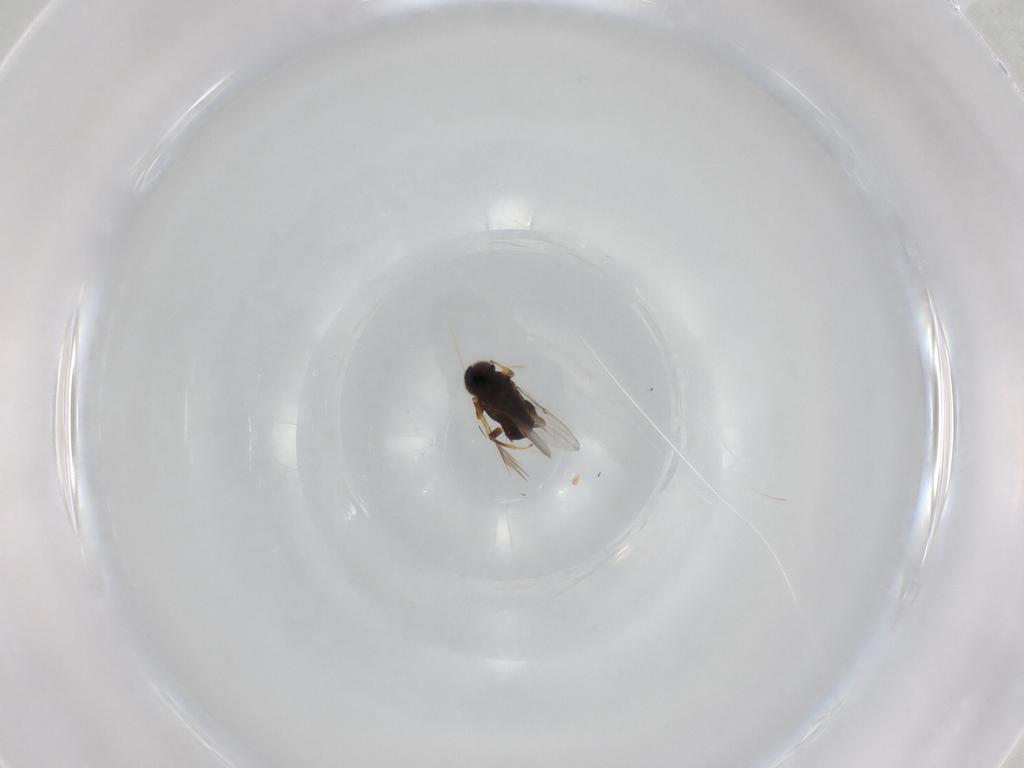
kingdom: Animalia
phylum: Arthropoda
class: Insecta
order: Hymenoptera
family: Encyrtidae
